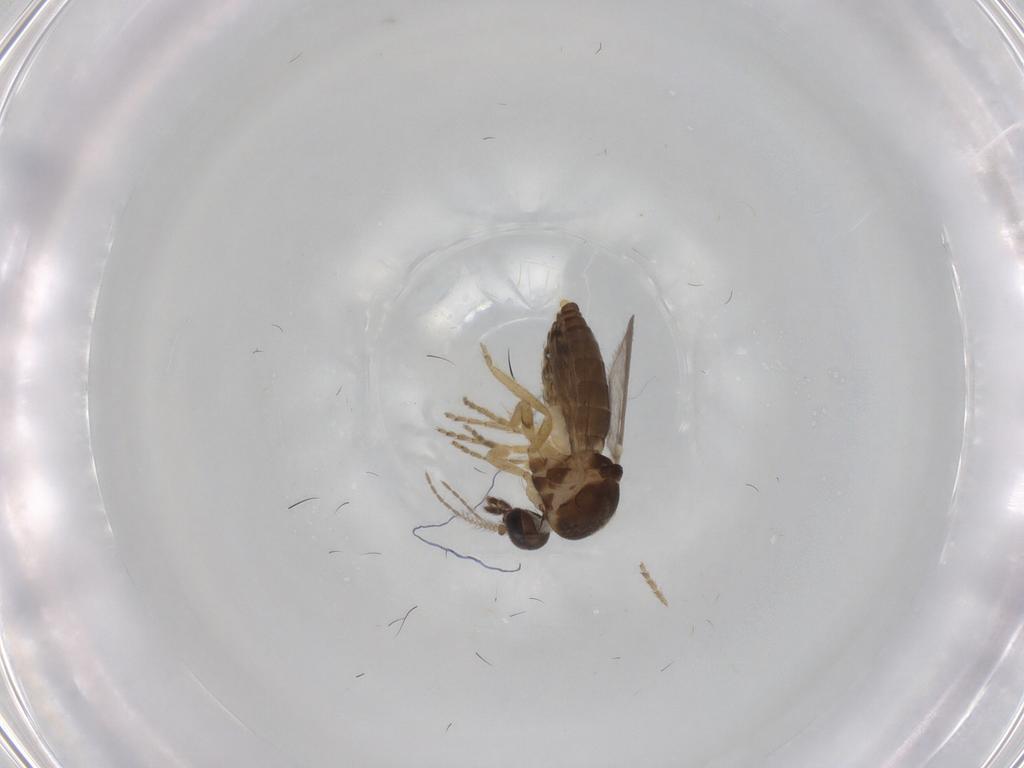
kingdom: Animalia
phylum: Arthropoda
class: Insecta
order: Diptera
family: Ceratopogonidae
